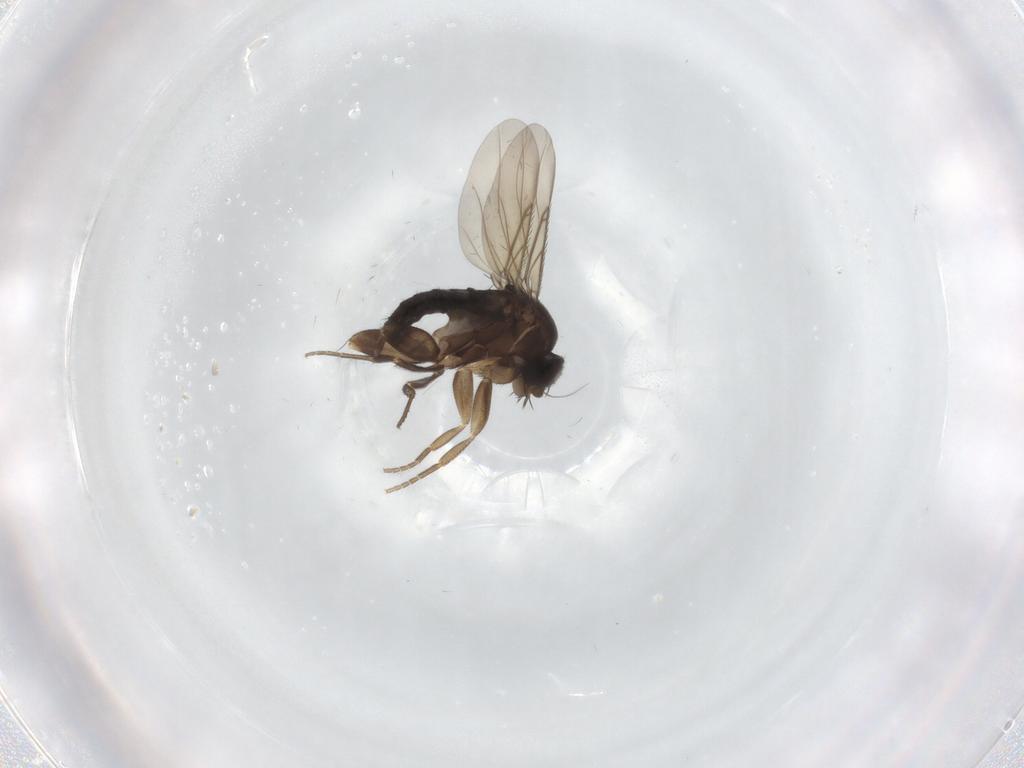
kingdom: Animalia
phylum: Arthropoda
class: Insecta
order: Diptera
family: Phoridae
